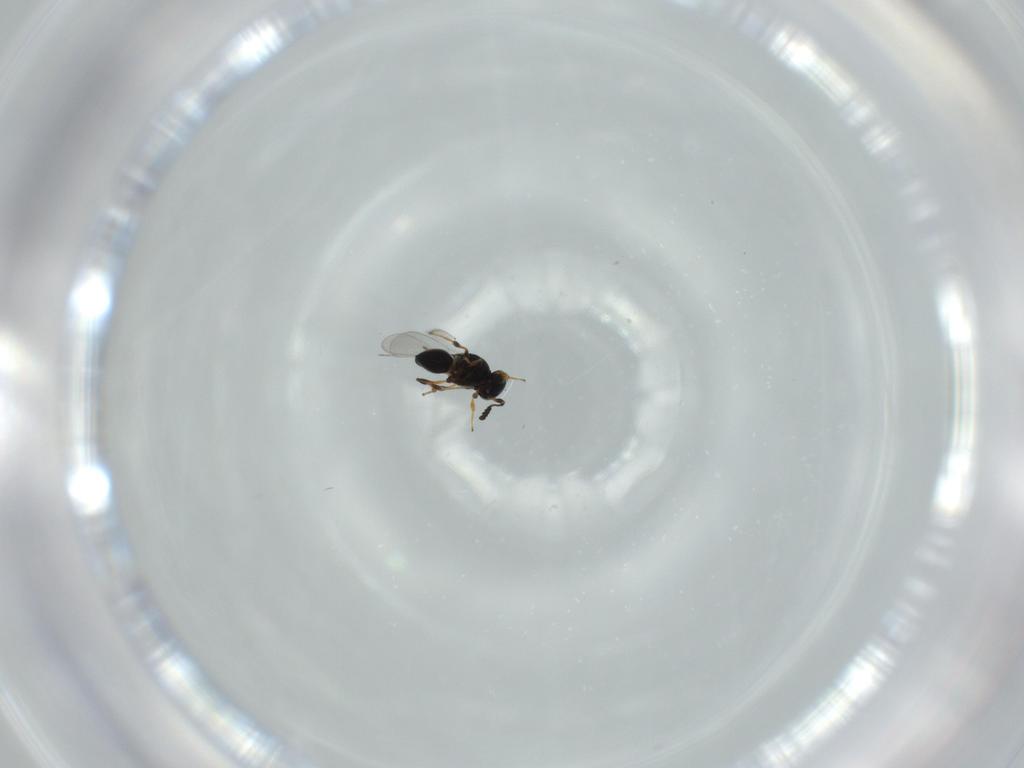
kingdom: Animalia
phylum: Arthropoda
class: Insecta
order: Hymenoptera
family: Platygastridae
